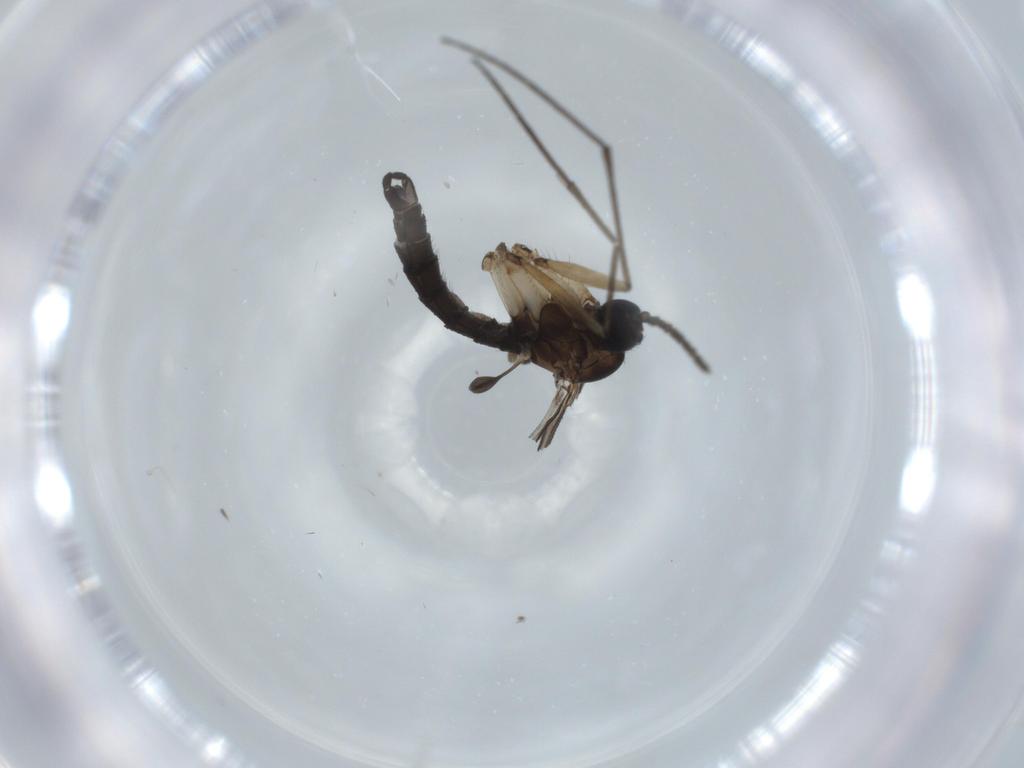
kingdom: Animalia
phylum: Arthropoda
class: Insecta
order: Diptera
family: Sciaridae
